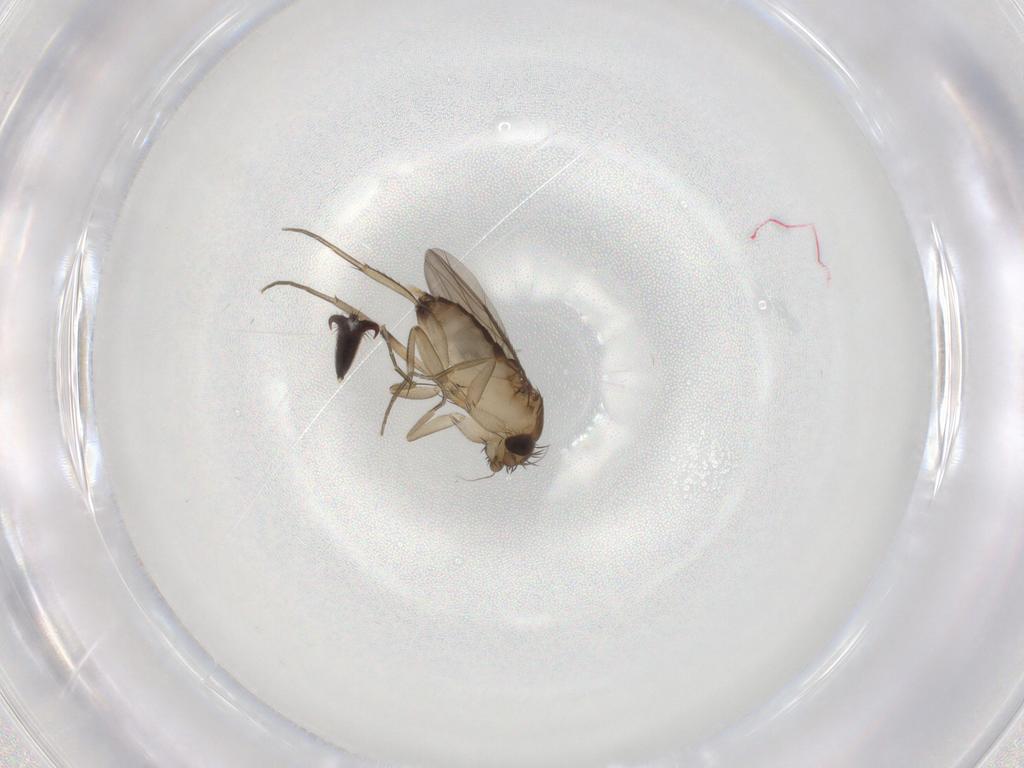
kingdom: Animalia
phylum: Arthropoda
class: Insecta
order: Diptera
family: Phoridae
